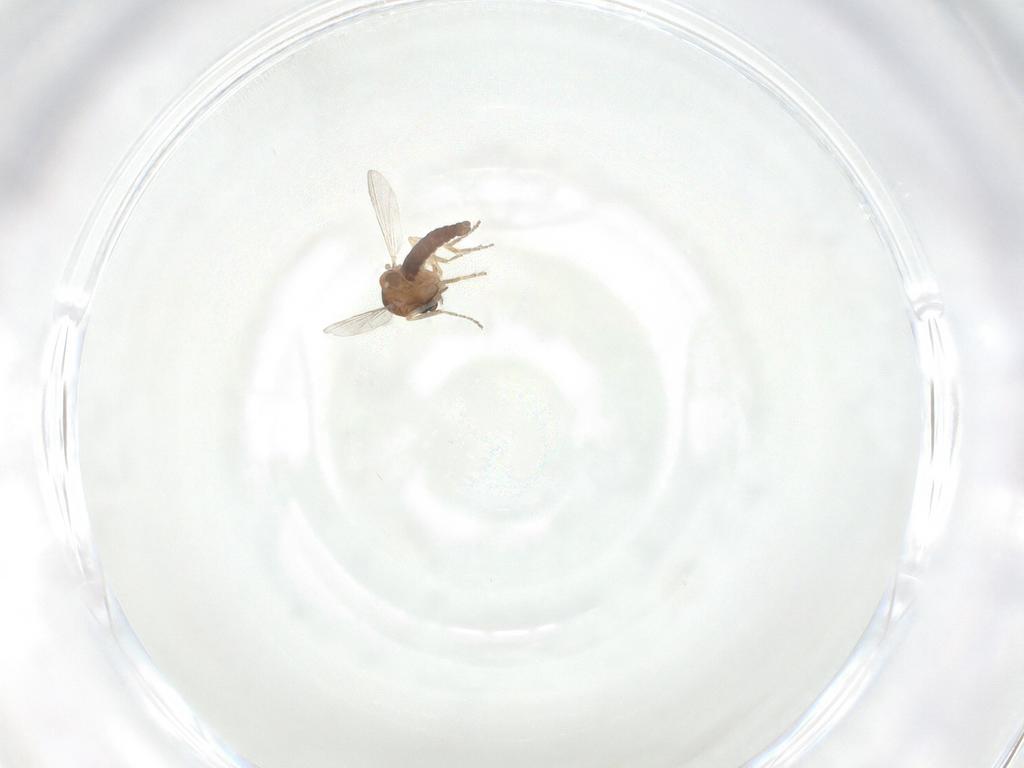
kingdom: Animalia
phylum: Arthropoda
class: Insecta
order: Diptera
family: Ceratopogonidae
